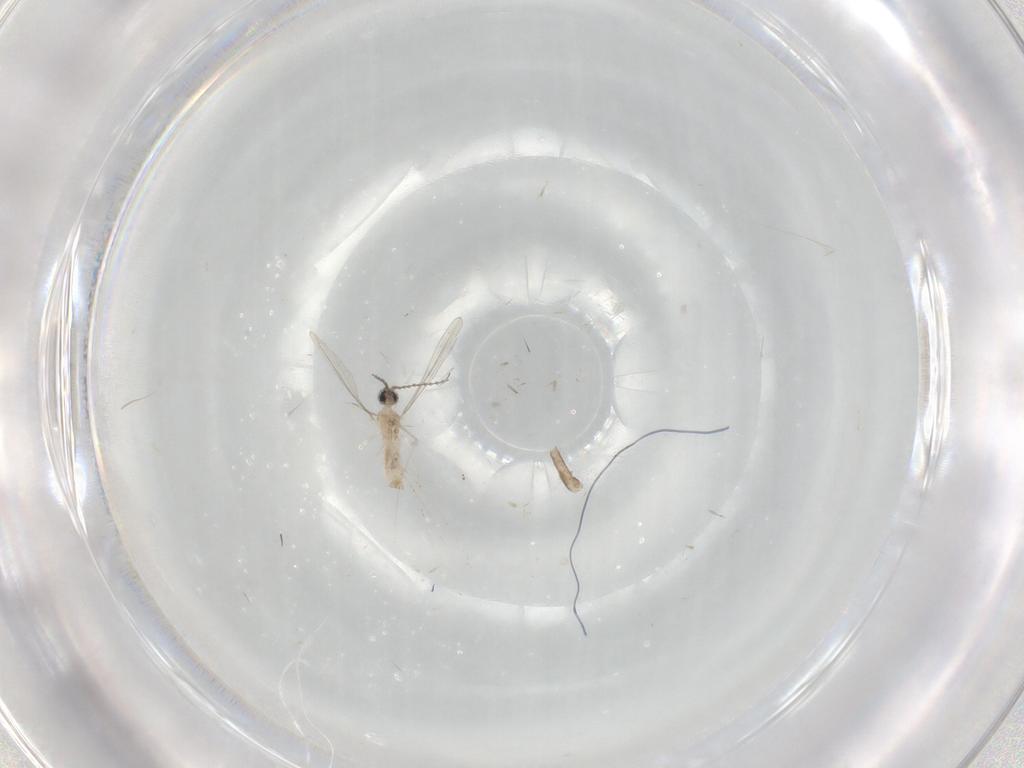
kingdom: Animalia
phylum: Arthropoda
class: Insecta
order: Diptera
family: Cecidomyiidae
